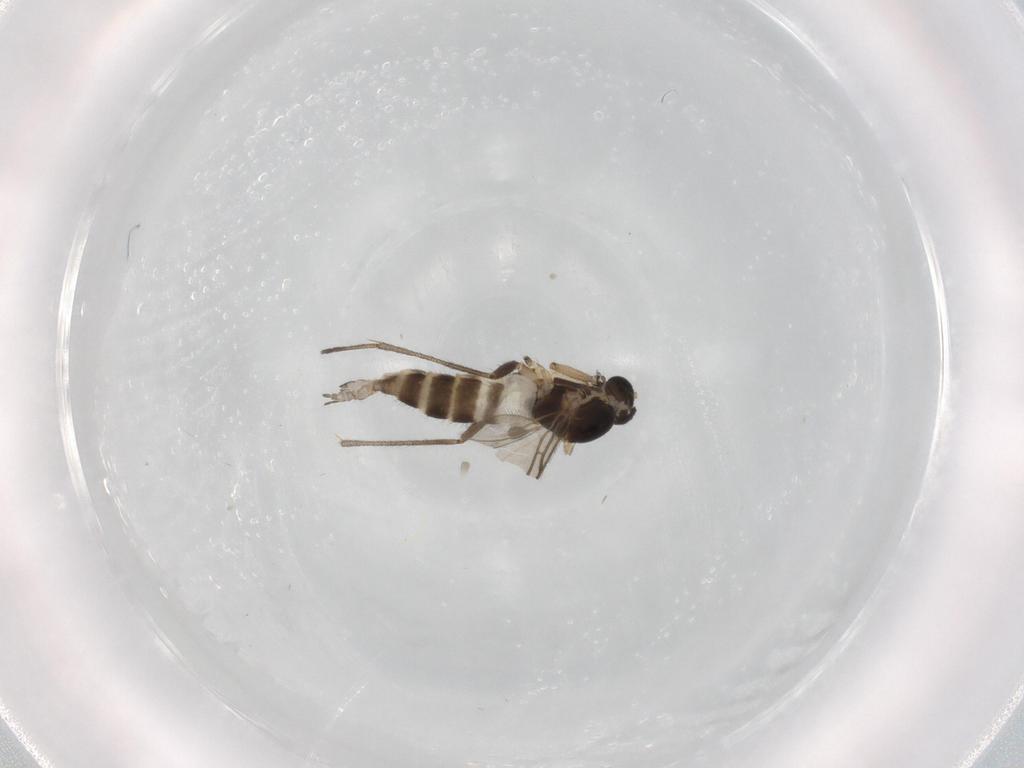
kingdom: Animalia
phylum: Arthropoda
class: Insecta
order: Diptera
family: Sciaridae
